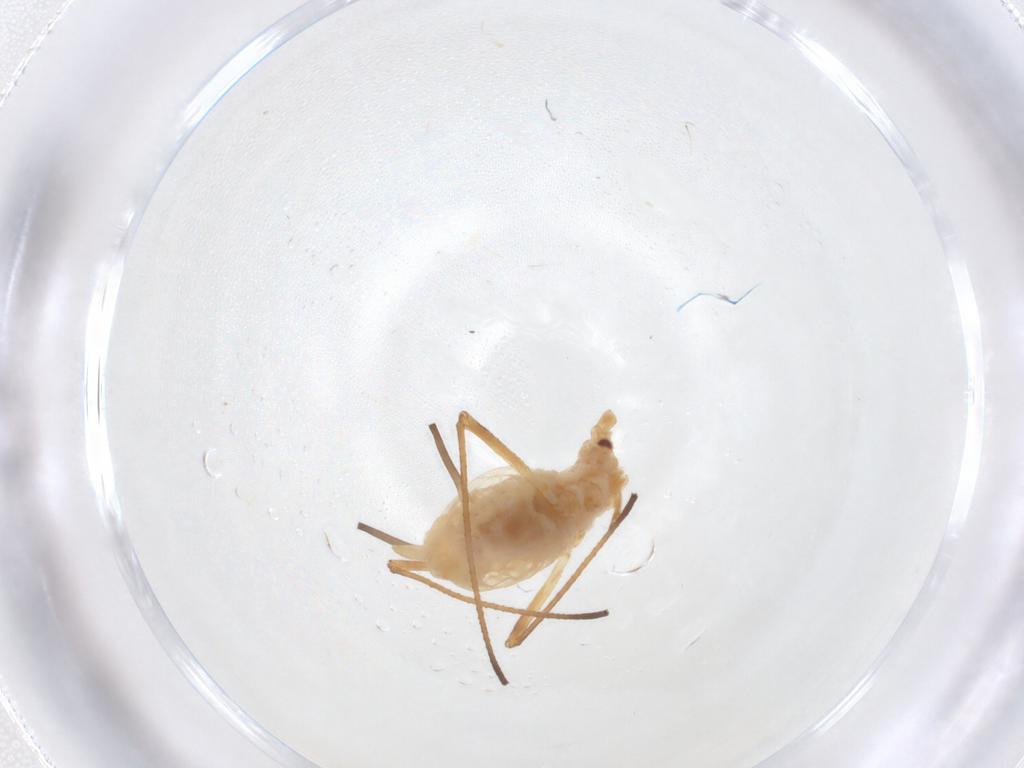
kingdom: Animalia
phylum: Arthropoda
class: Insecta
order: Hemiptera
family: Aphididae
